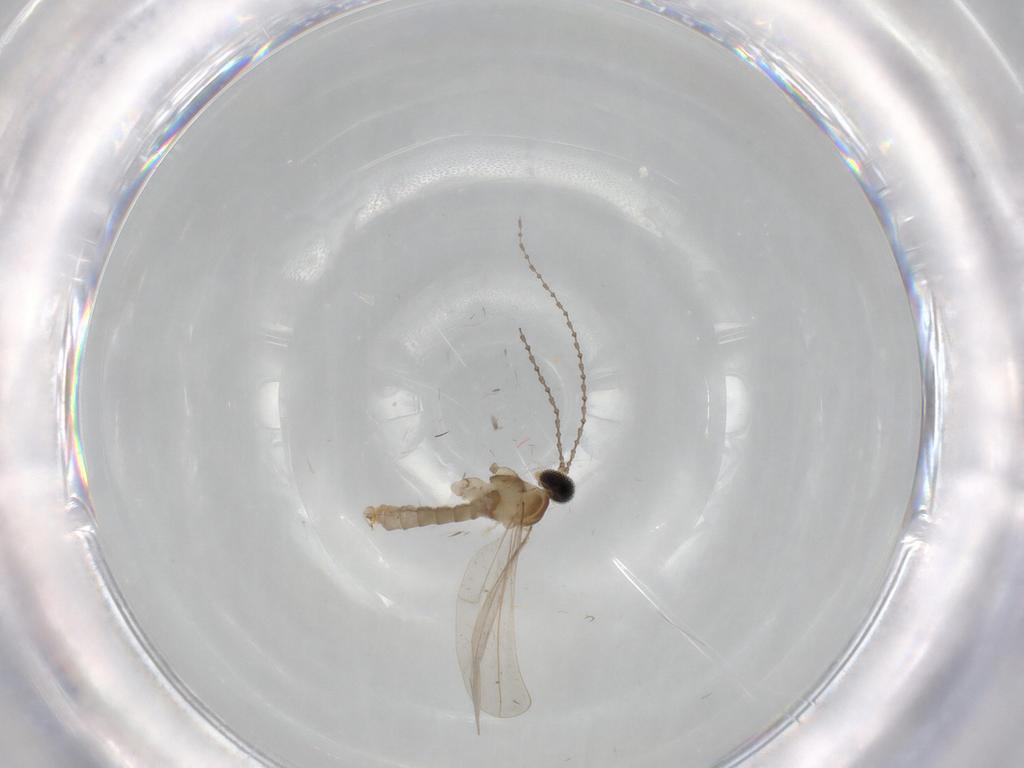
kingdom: Animalia
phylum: Arthropoda
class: Insecta
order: Diptera
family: Cecidomyiidae
